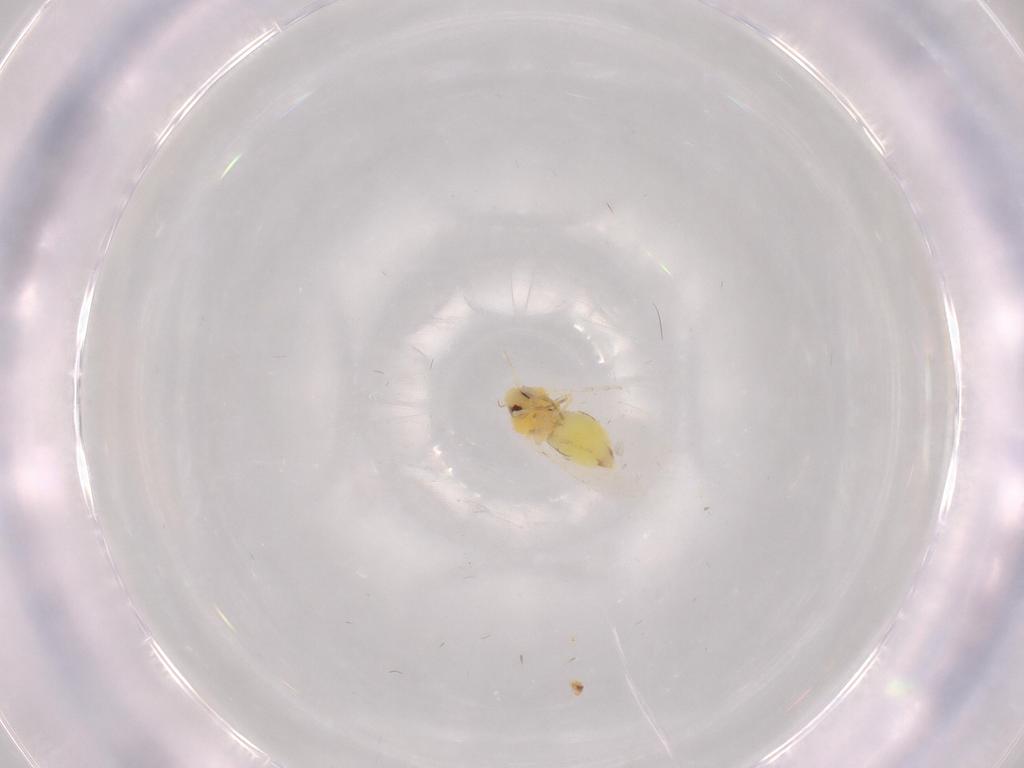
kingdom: Animalia
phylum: Arthropoda
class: Insecta
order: Hemiptera
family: Aleyrodidae
